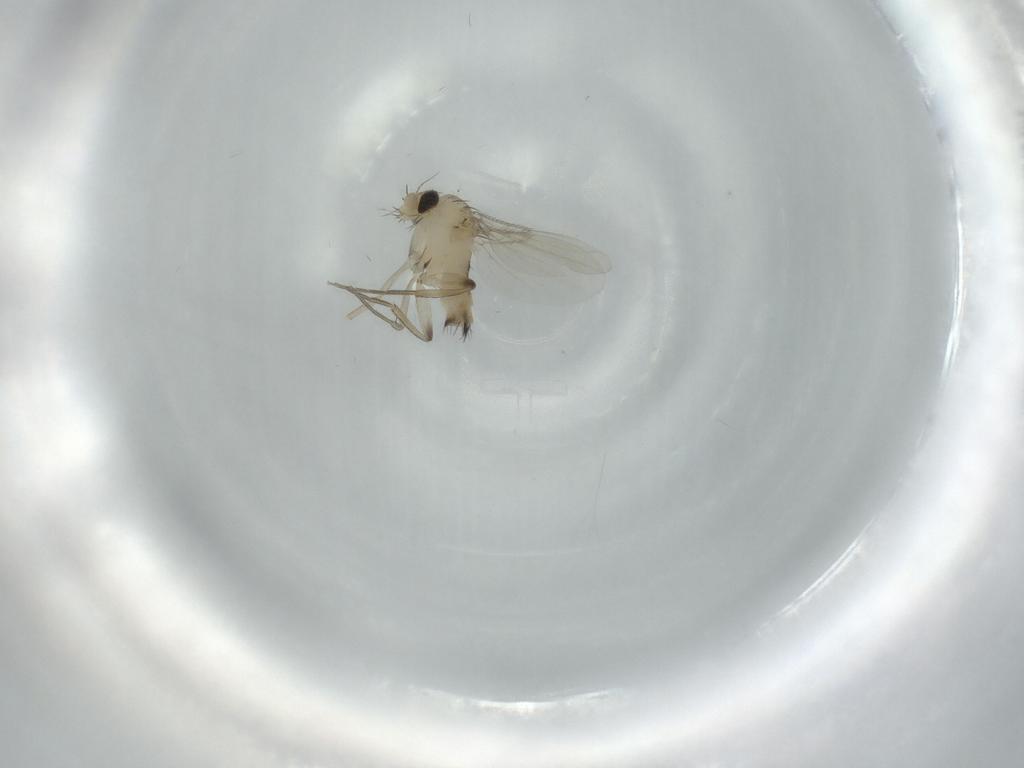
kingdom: Animalia
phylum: Arthropoda
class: Insecta
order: Diptera
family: Phoridae
